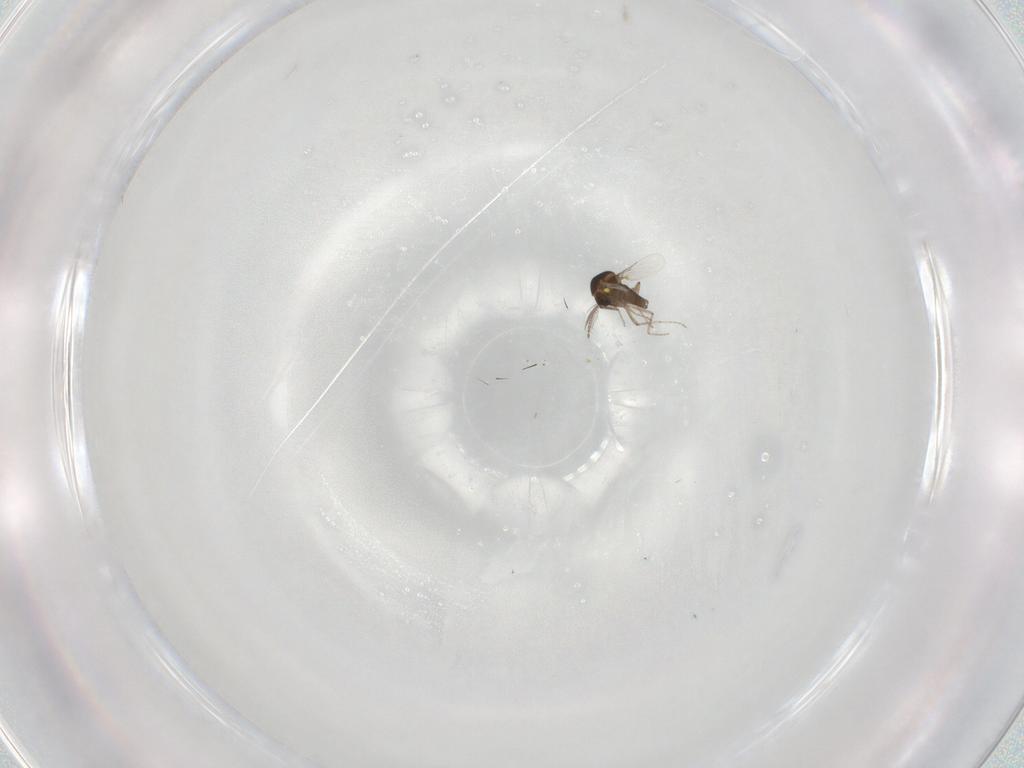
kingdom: Animalia
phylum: Arthropoda
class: Insecta
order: Diptera
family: Ceratopogonidae
